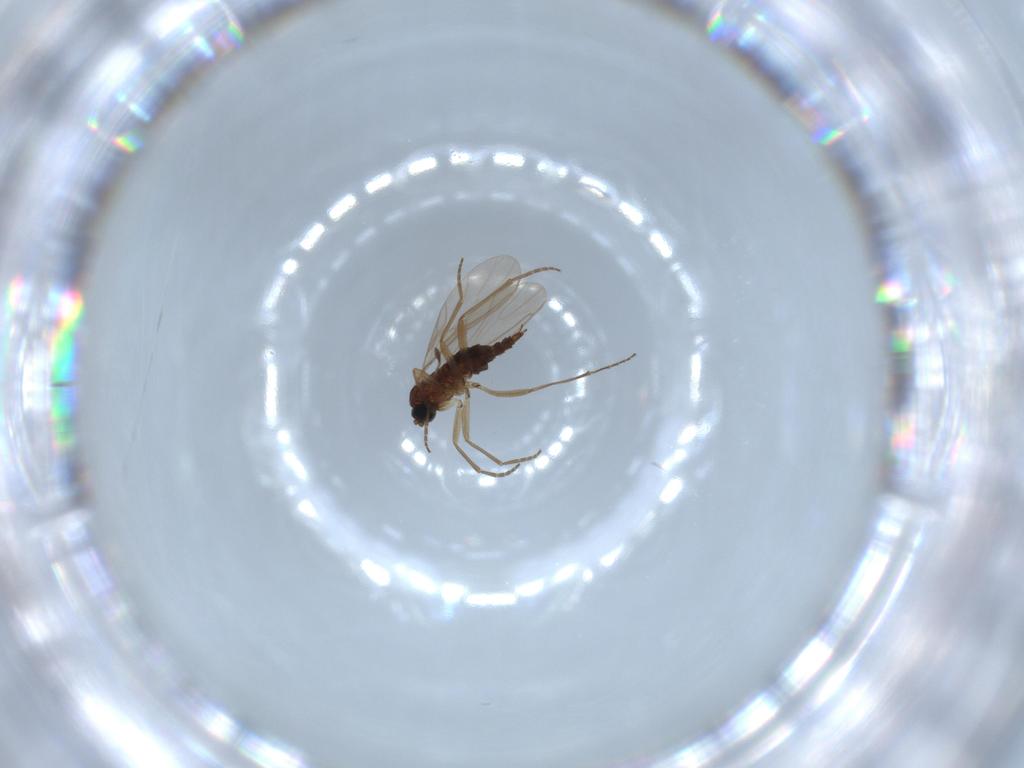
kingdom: Animalia
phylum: Arthropoda
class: Insecta
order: Diptera
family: Sciaridae
